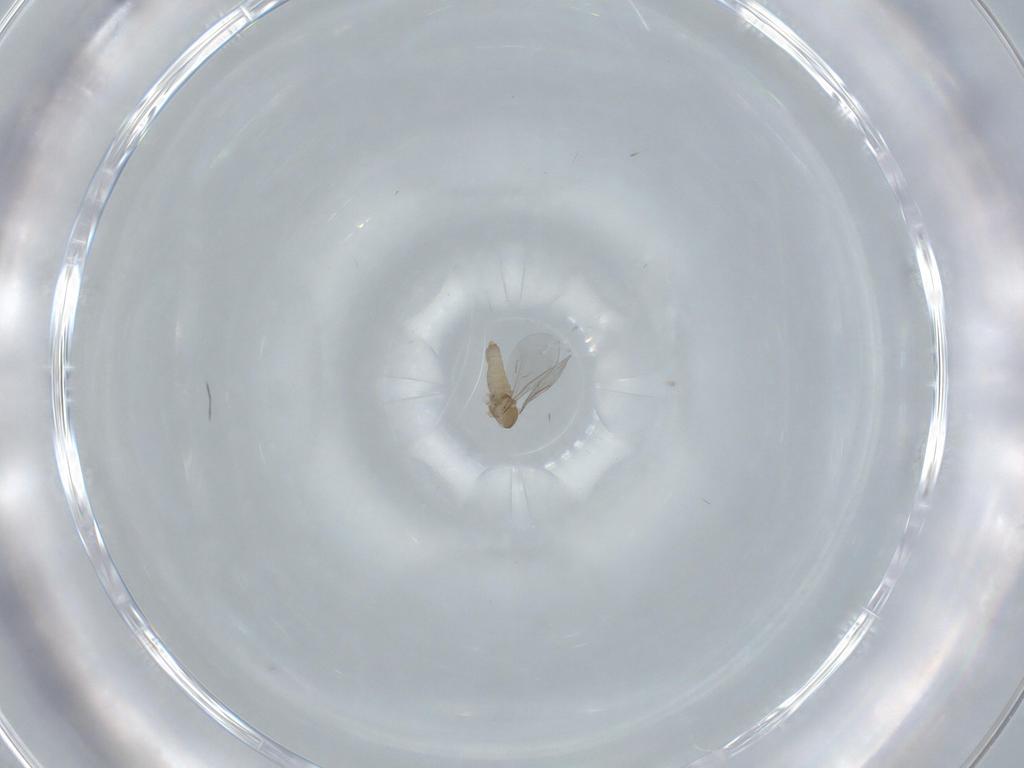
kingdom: Animalia
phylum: Arthropoda
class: Insecta
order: Diptera
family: Cecidomyiidae
